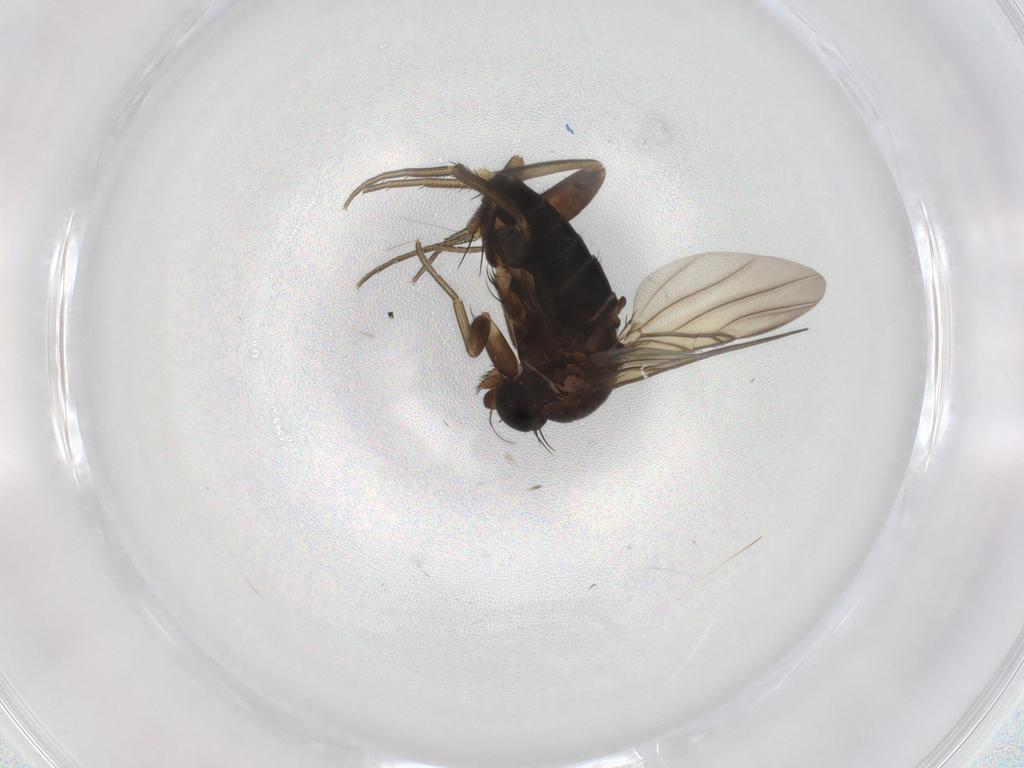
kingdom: Animalia
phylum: Arthropoda
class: Insecta
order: Diptera
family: Phoridae
